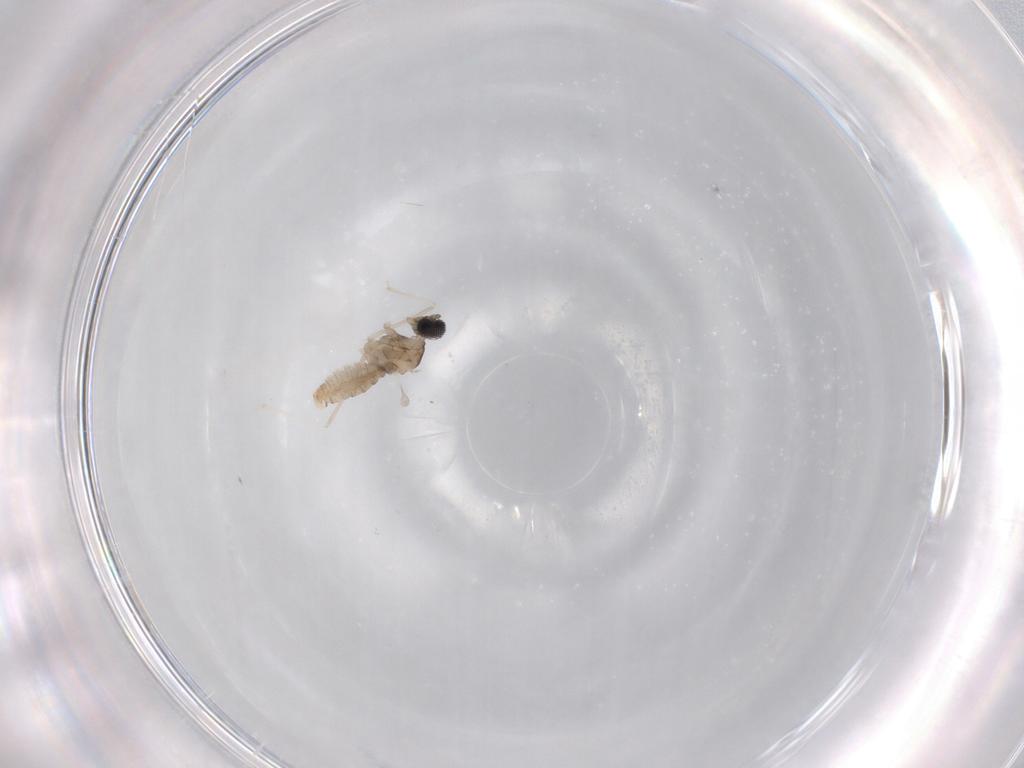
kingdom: Animalia
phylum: Arthropoda
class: Insecta
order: Diptera
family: Cecidomyiidae
